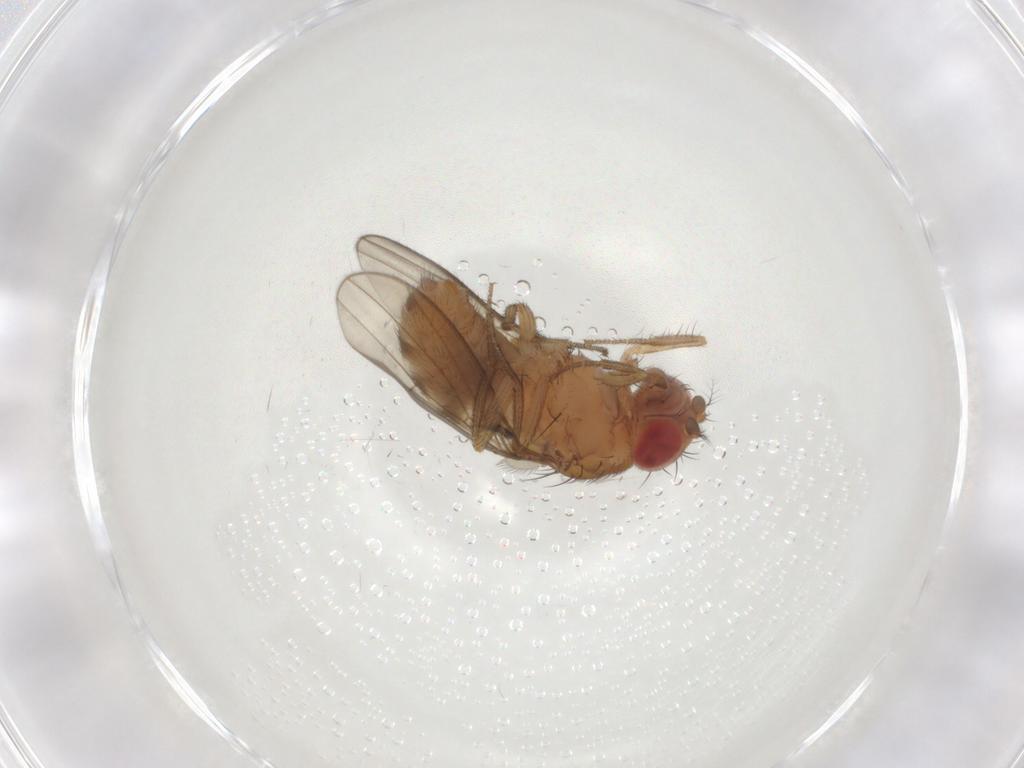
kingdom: Animalia
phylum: Arthropoda
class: Insecta
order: Diptera
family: Drosophilidae
